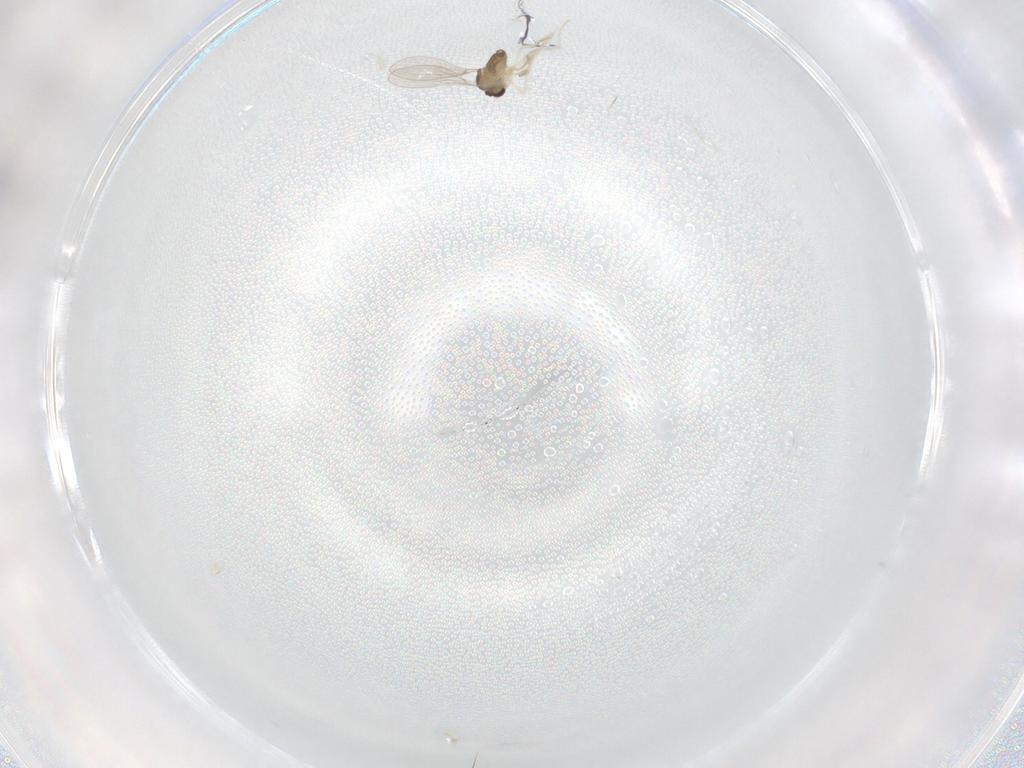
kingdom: Animalia
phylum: Arthropoda
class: Insecta
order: Diptera
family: Cecidomyiidae
